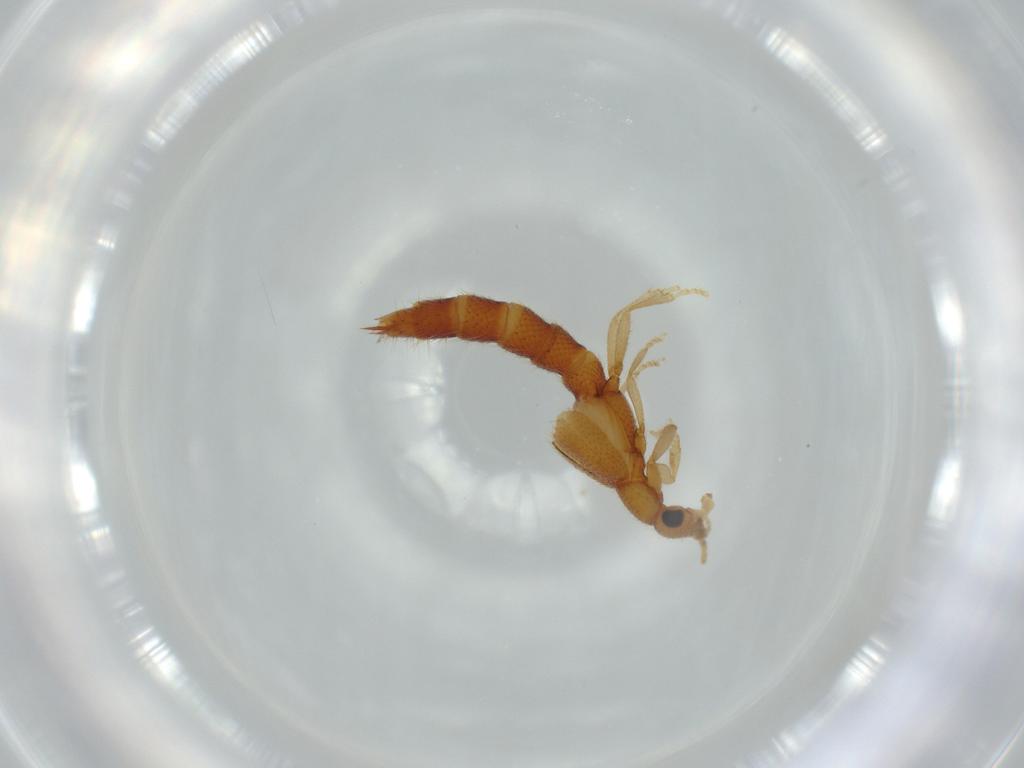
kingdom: Animalia
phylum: Arthropoda
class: Insecta
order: Coleoptera
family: Staphylinidae
